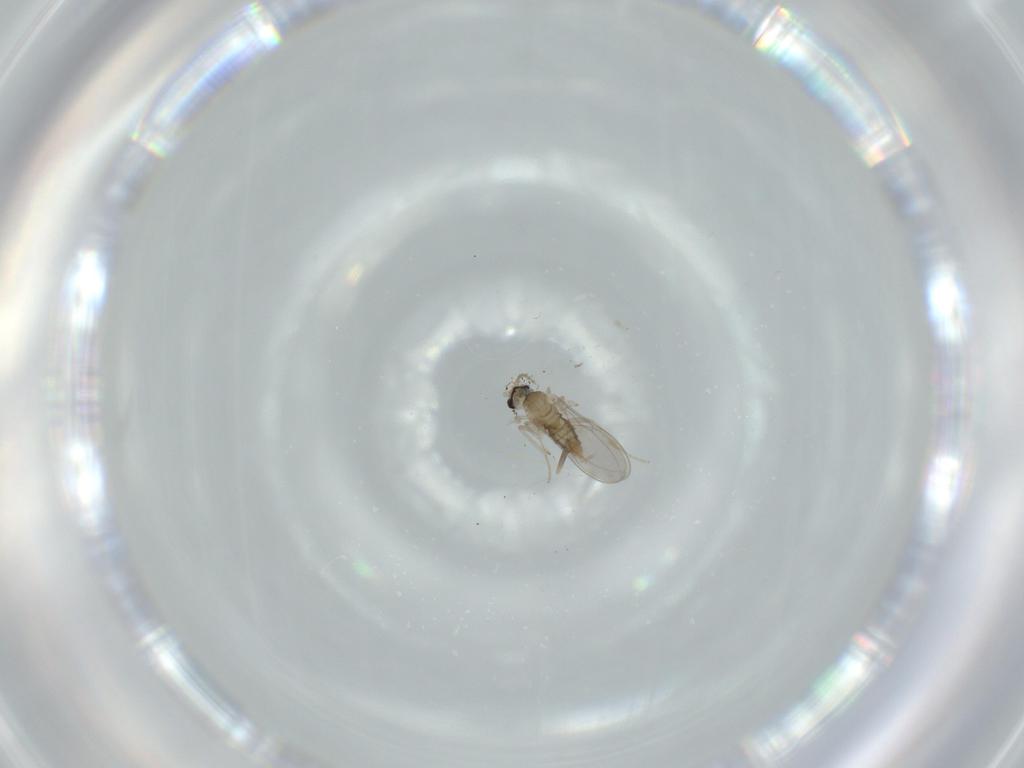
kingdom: Animalia
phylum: Arthropoda
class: Insecta
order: Diptera
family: Cecidomyiidae
